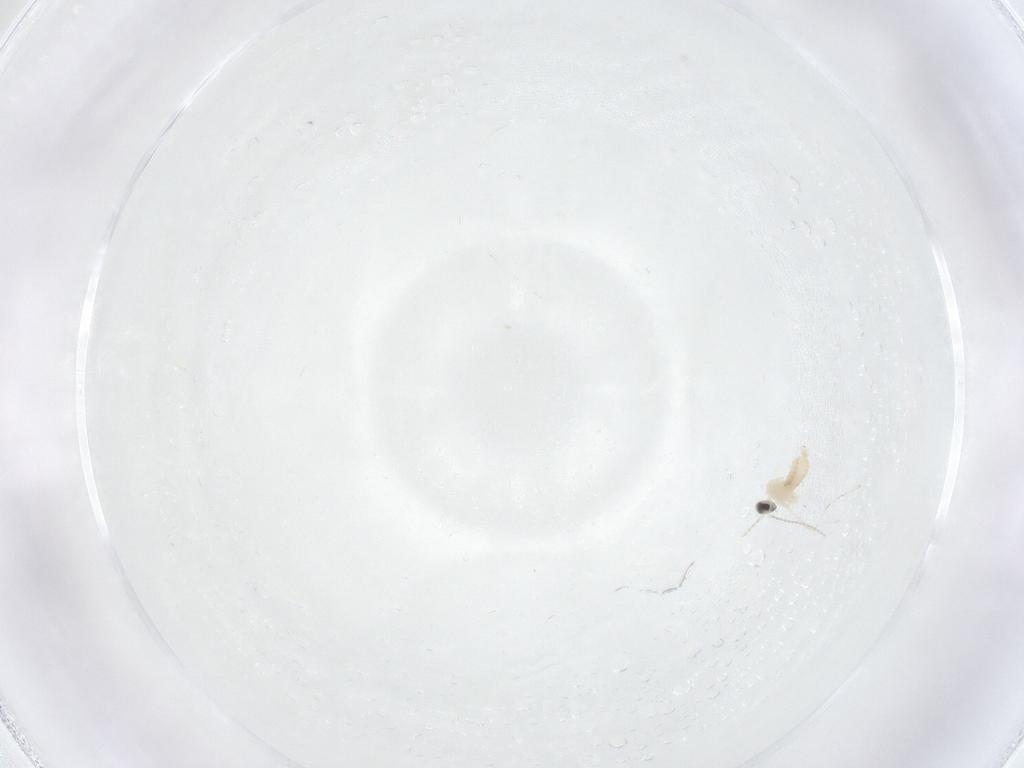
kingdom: Animalia
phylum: Arthropoda
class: Insecta
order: Diptera
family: Cecidomyiidae
